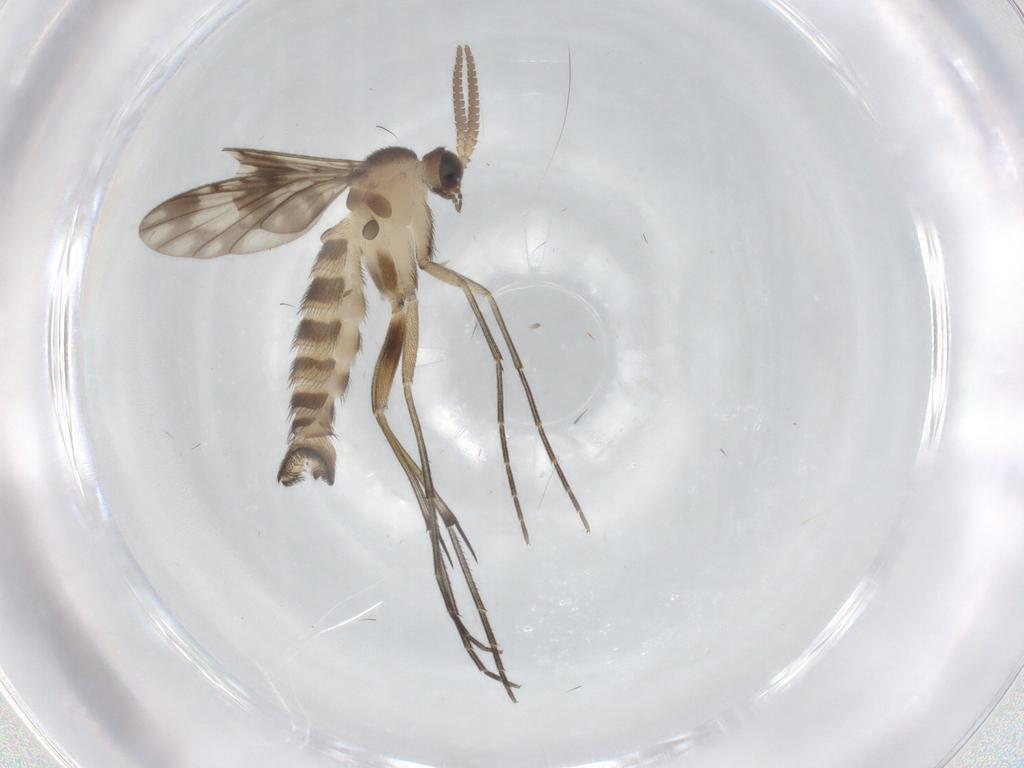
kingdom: Animalia
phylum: Arthropoda
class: Insecta
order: Diptera
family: Keroplatidae
